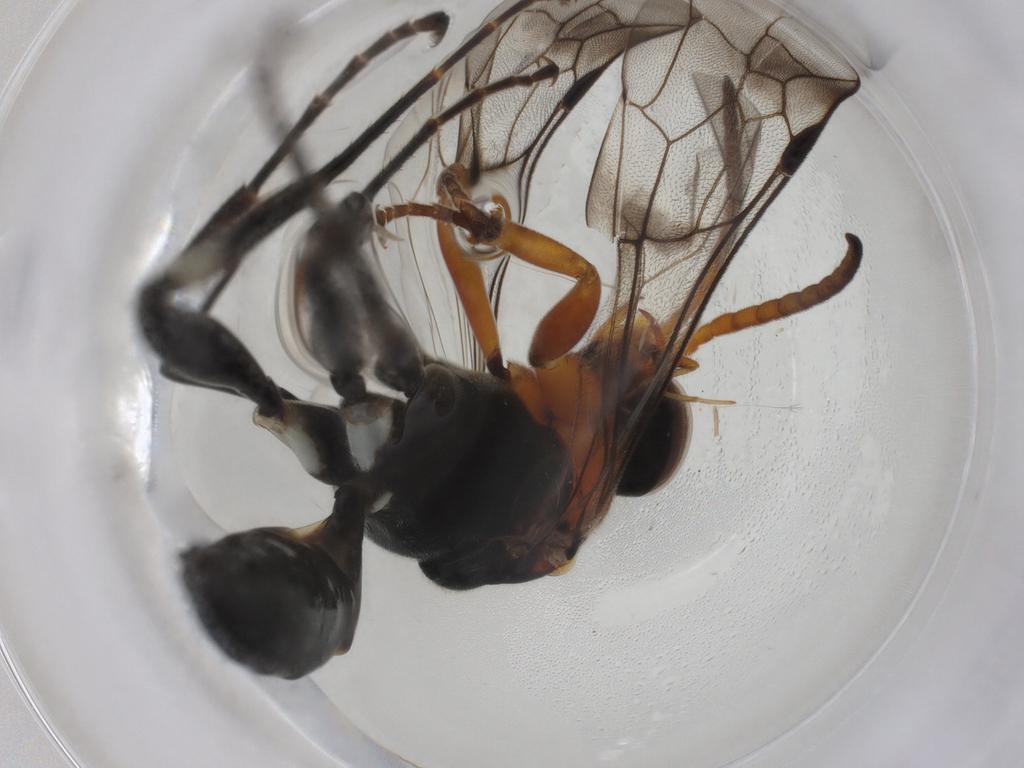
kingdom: Animalia
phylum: Arthropoda
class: Insecta
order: Hymenoptera
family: Pompilidae
